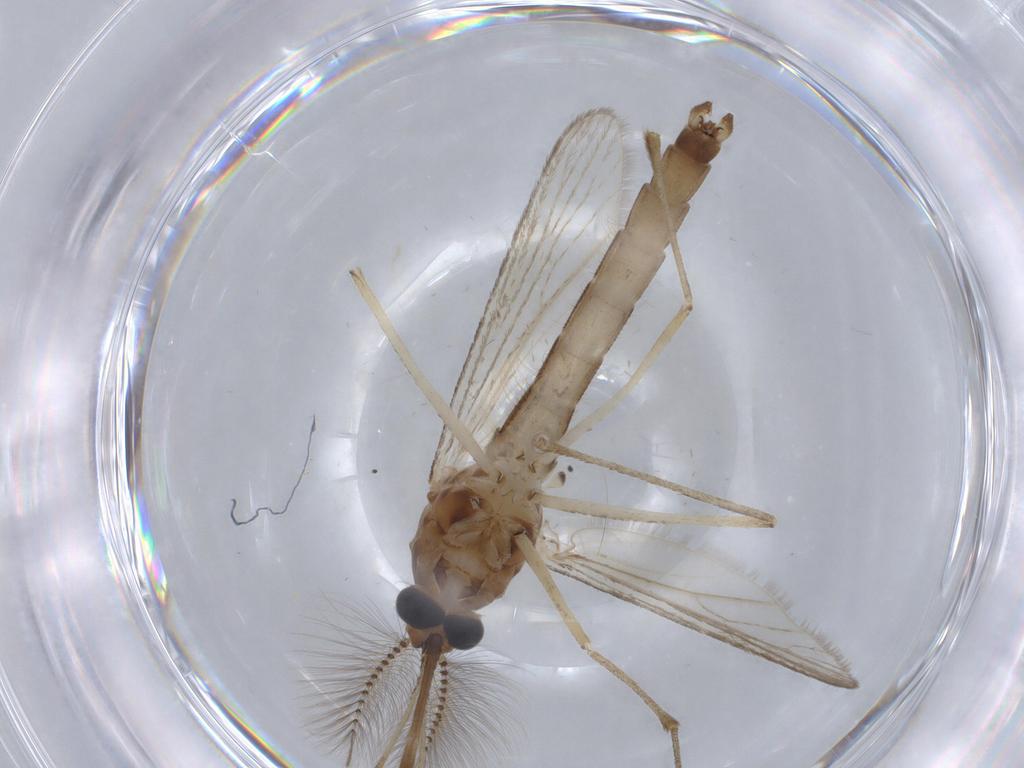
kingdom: Animalia
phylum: Arthropoda
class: Insecta
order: Diptera
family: Culicidae
